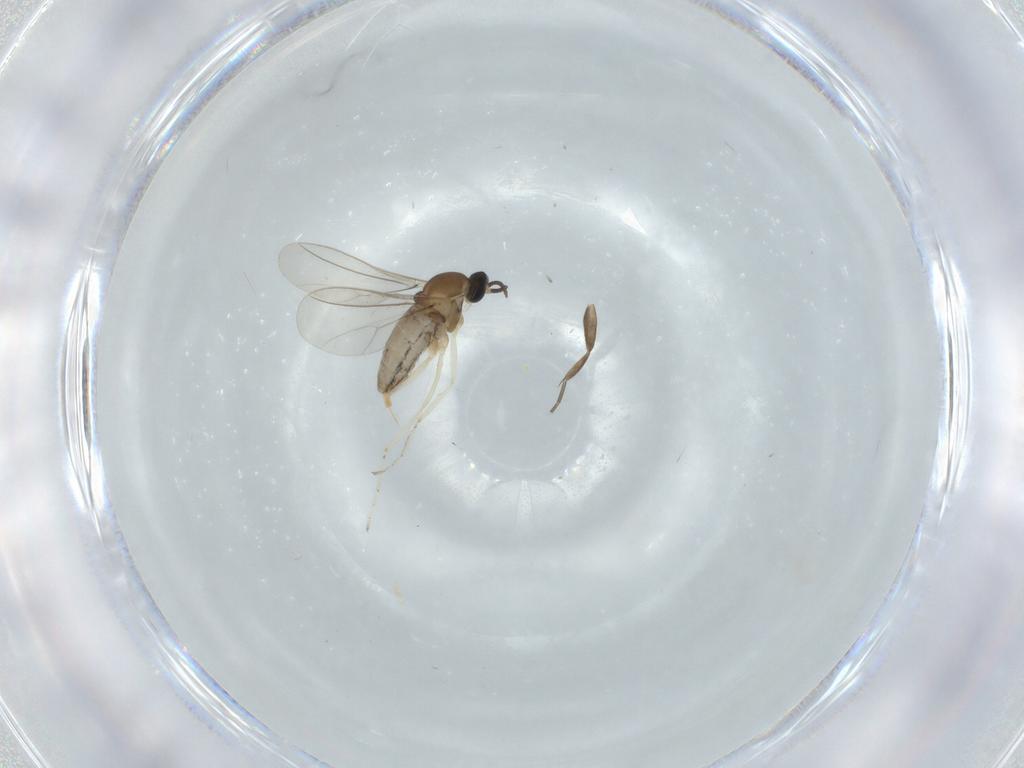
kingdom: Animalia
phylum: Arthropoda
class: Insecta
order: Diptera
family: Cecidomyiidae
